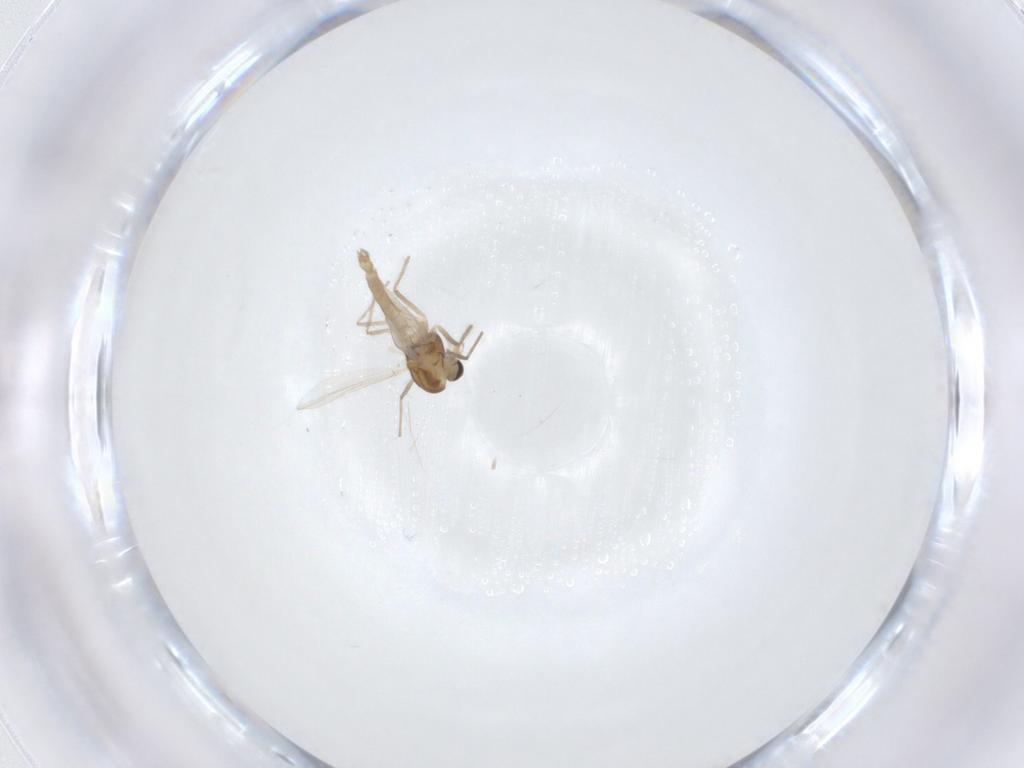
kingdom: Animalia
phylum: Arthropoda
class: Insecta
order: Diptera
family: Chironomidae
